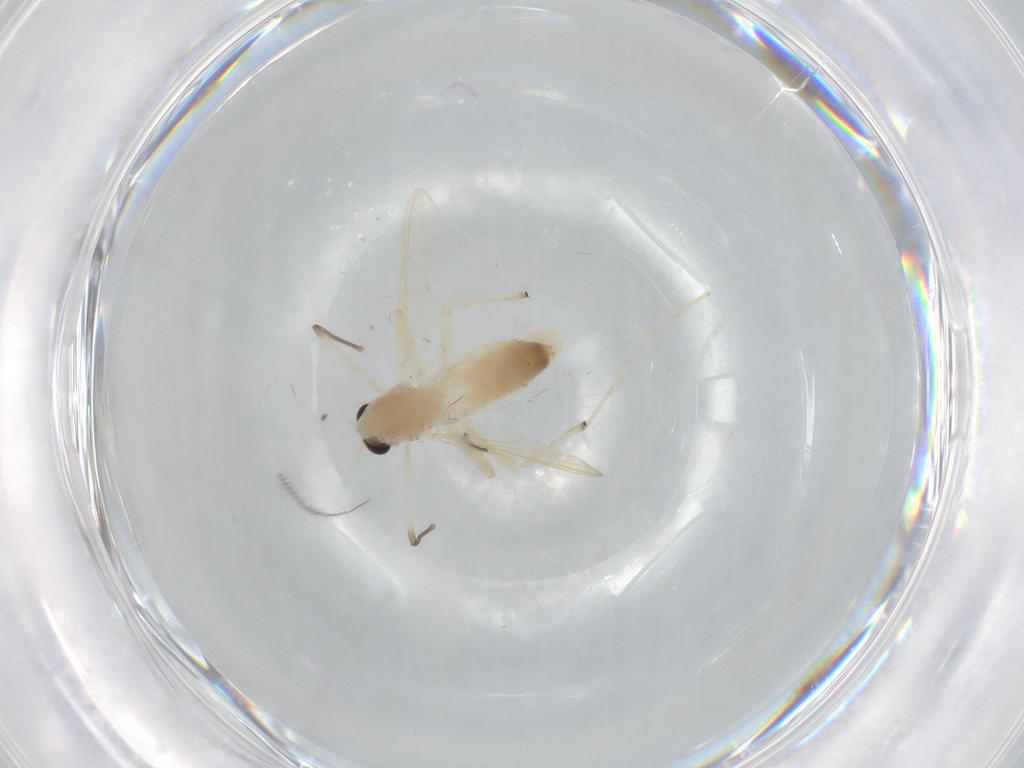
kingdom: Animalia
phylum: Arthropoda
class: Insecta
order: Diptera
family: Chironomidae
